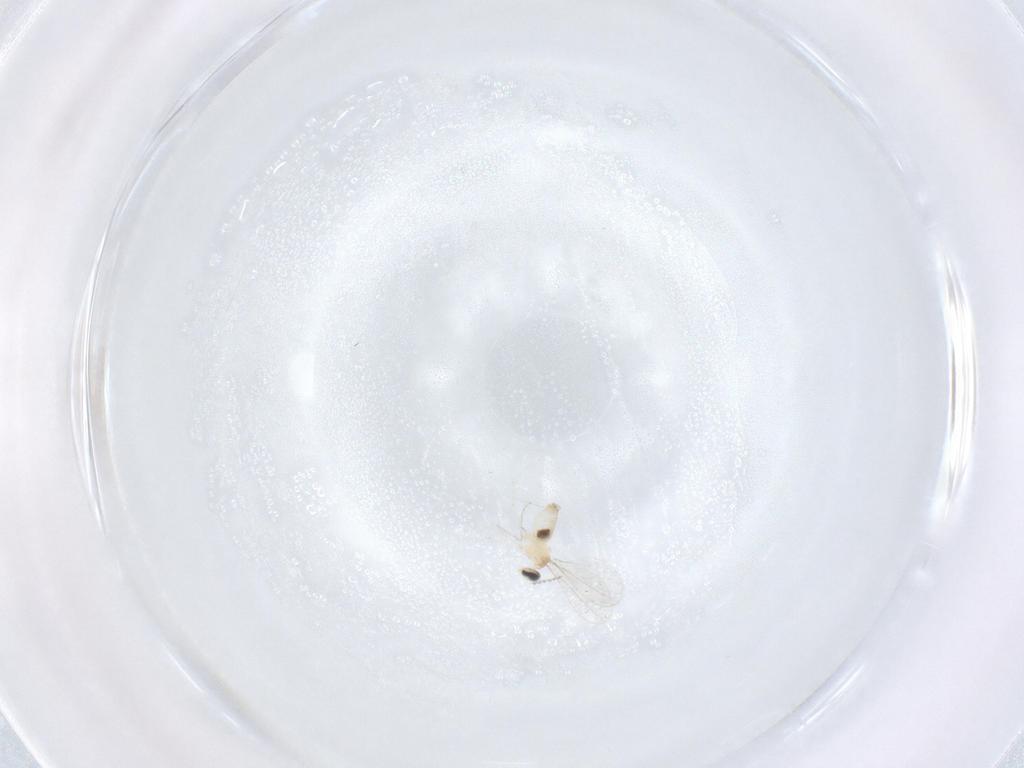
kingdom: Animalia
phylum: Arthropoda
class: Insecta
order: Diptera
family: Cecidomyiidae
